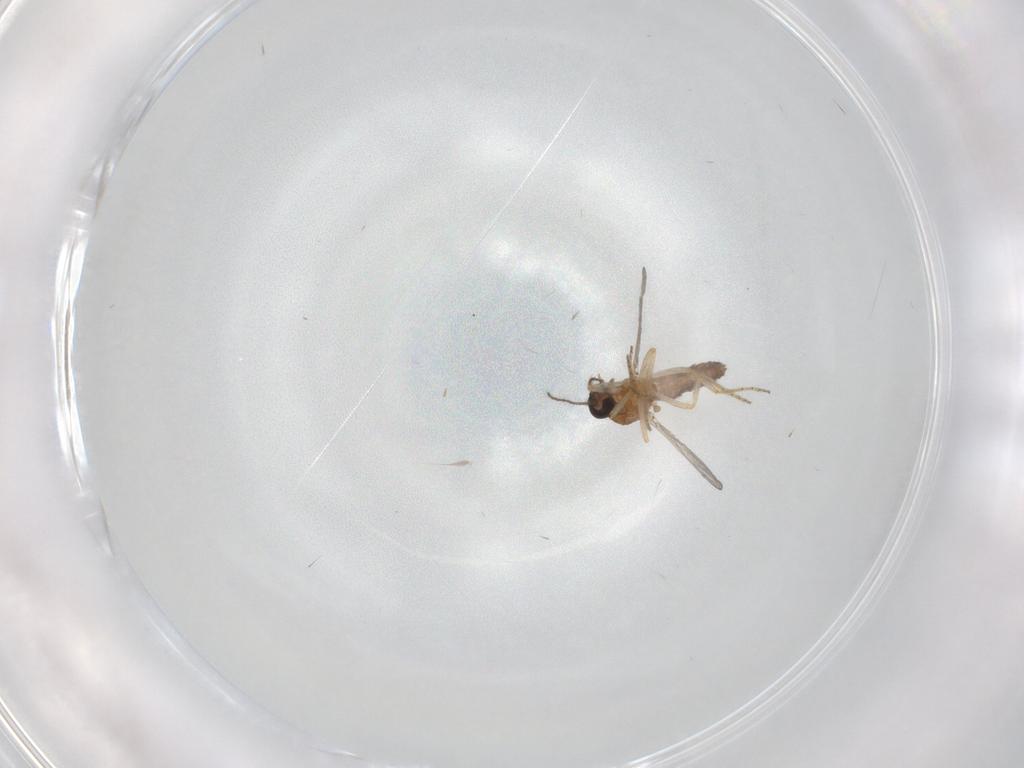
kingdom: Animalia
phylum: Arthropoda
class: Insecta
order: Diptera
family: Ceratopogonidae
